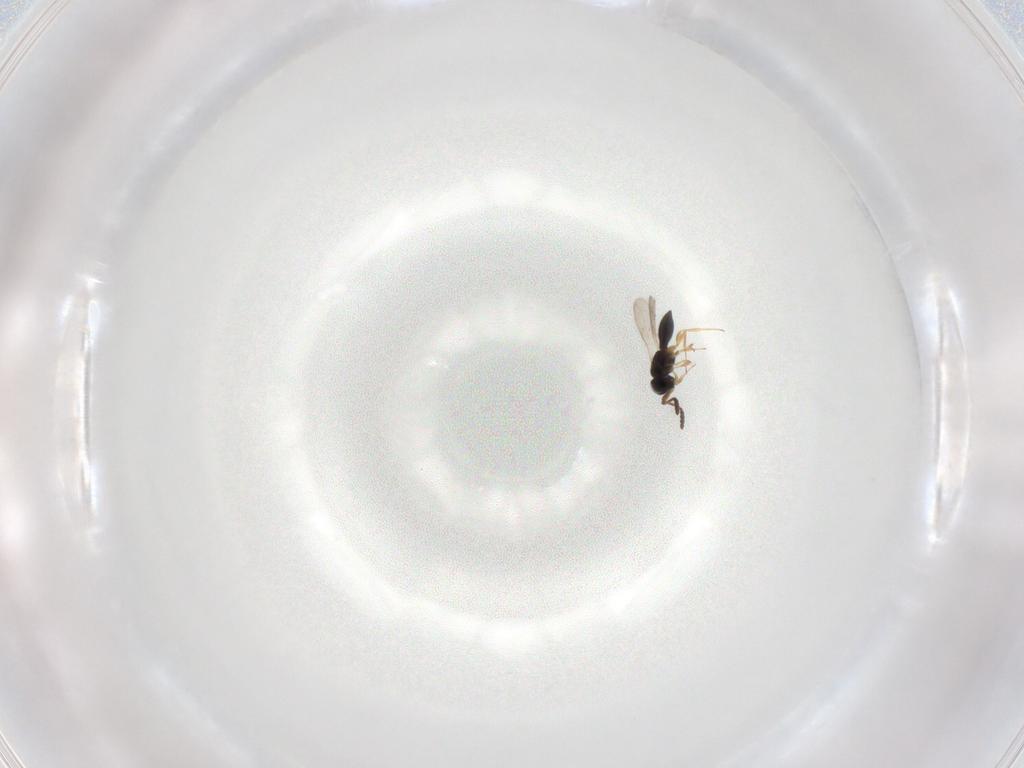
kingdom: Animalia
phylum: Arthropoda
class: Insecta
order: Hymenoptera
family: Scelionidae
